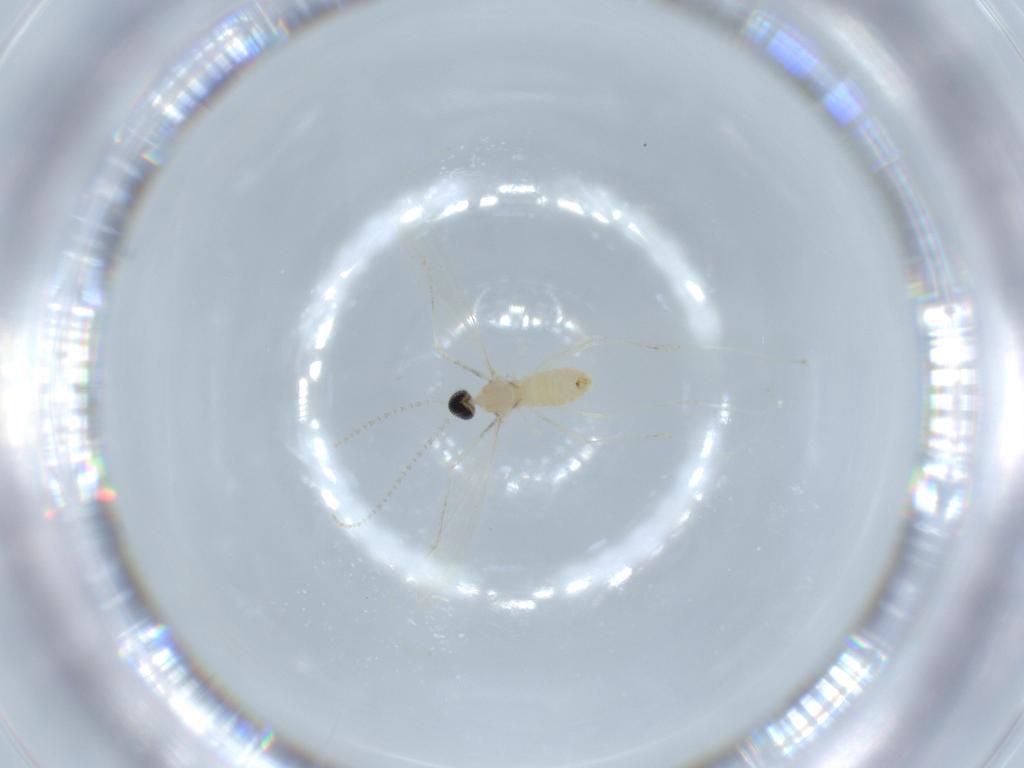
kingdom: Animalia
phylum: Arthropoda
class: Insecta
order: Diptera
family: Cecidomyiidae
